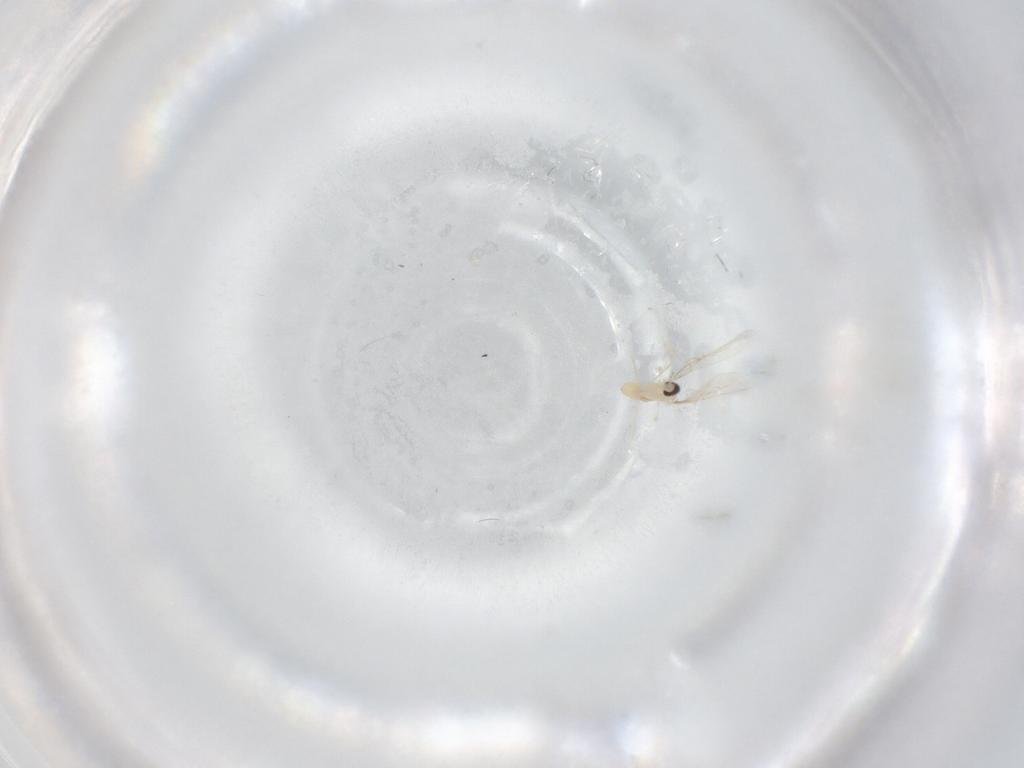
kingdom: Animalia
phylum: Arthropoda
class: Insecta
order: Diptera
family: Cecidomyiidae
